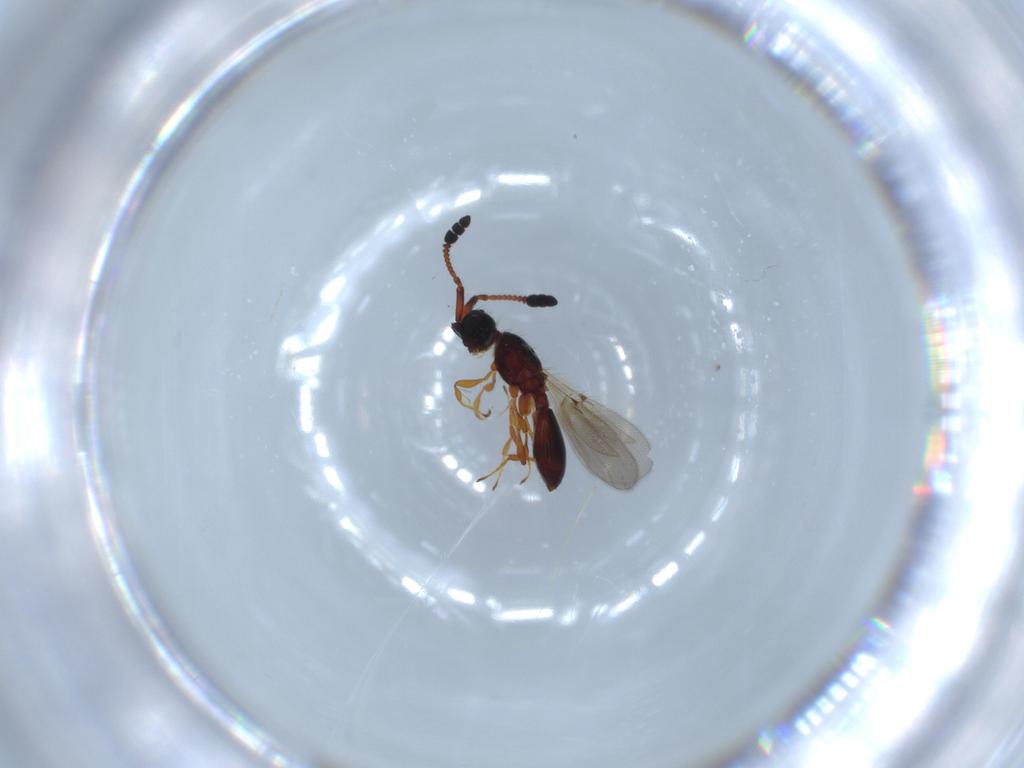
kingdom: Animalia
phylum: Arthropoda
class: Insecta
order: Hymenoptera
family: Diapriidae
